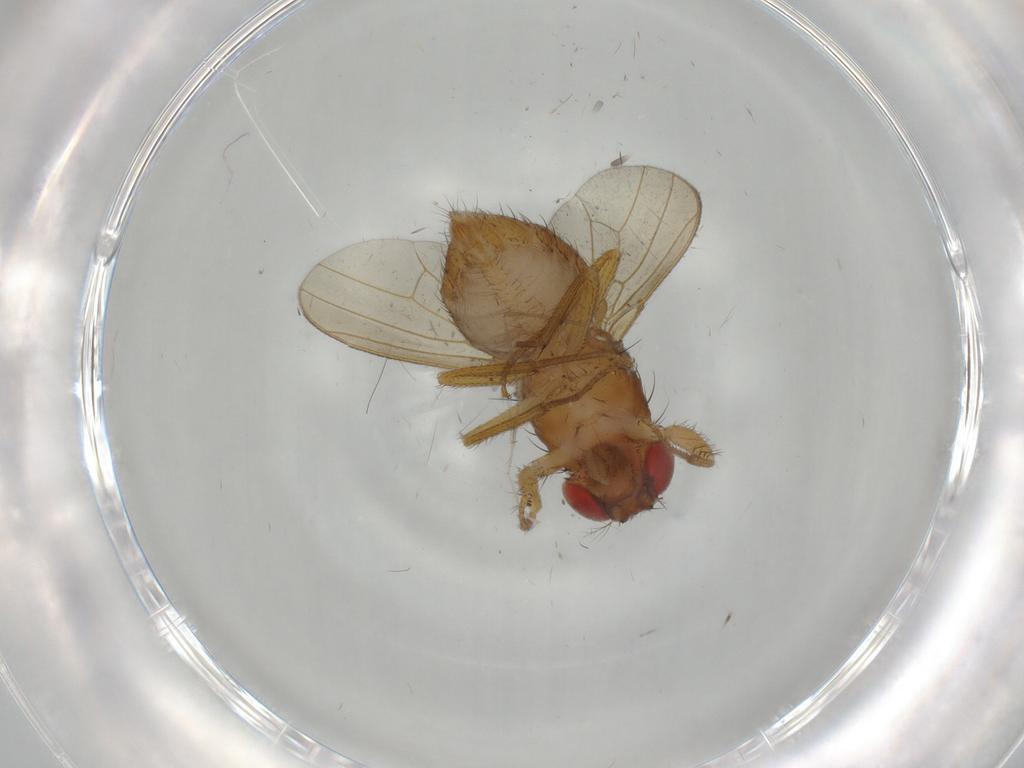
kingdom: Animalia
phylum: Arthropoda
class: Insecta
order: Diptera
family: Drosophilidae
